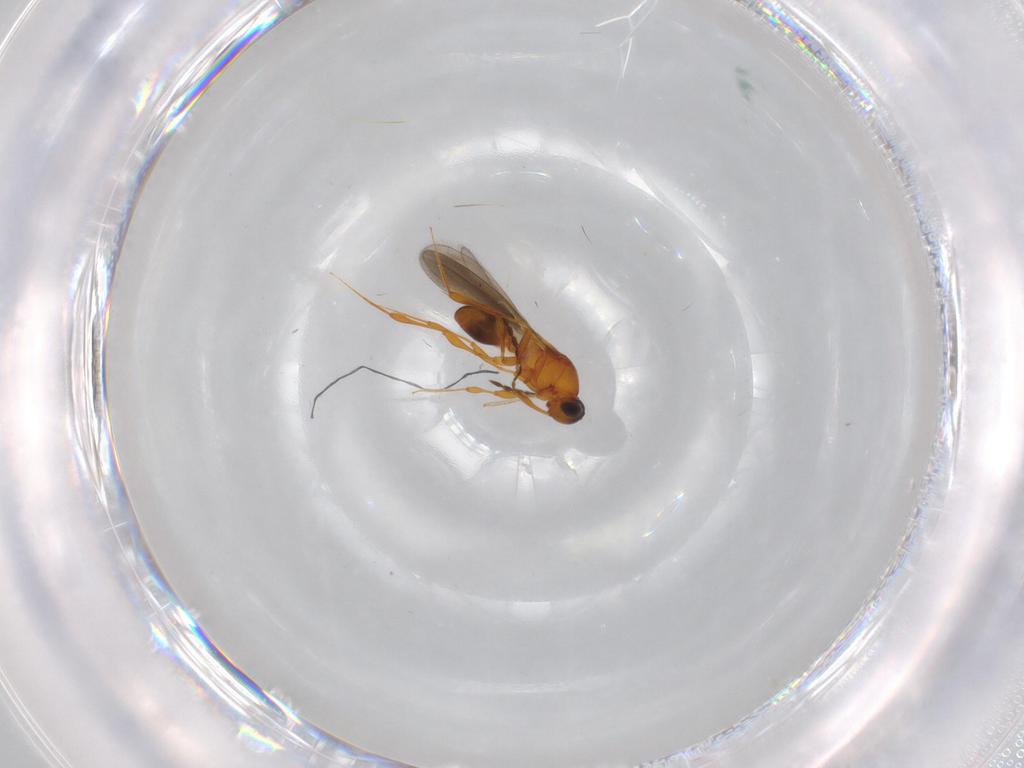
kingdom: Animalia
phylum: Arthropoda
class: Insecta
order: Hymenoptera
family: Platygastridae
